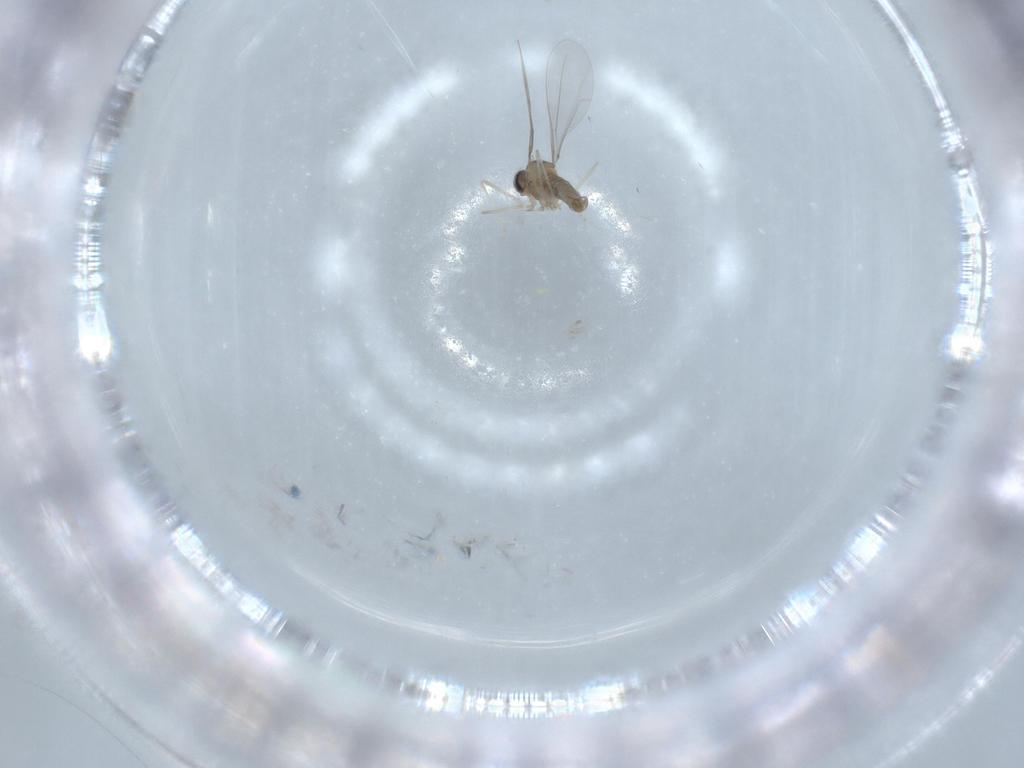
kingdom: Animalia
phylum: Arthropoda
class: Insecta
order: Diptera
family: Cecidomyiidae
